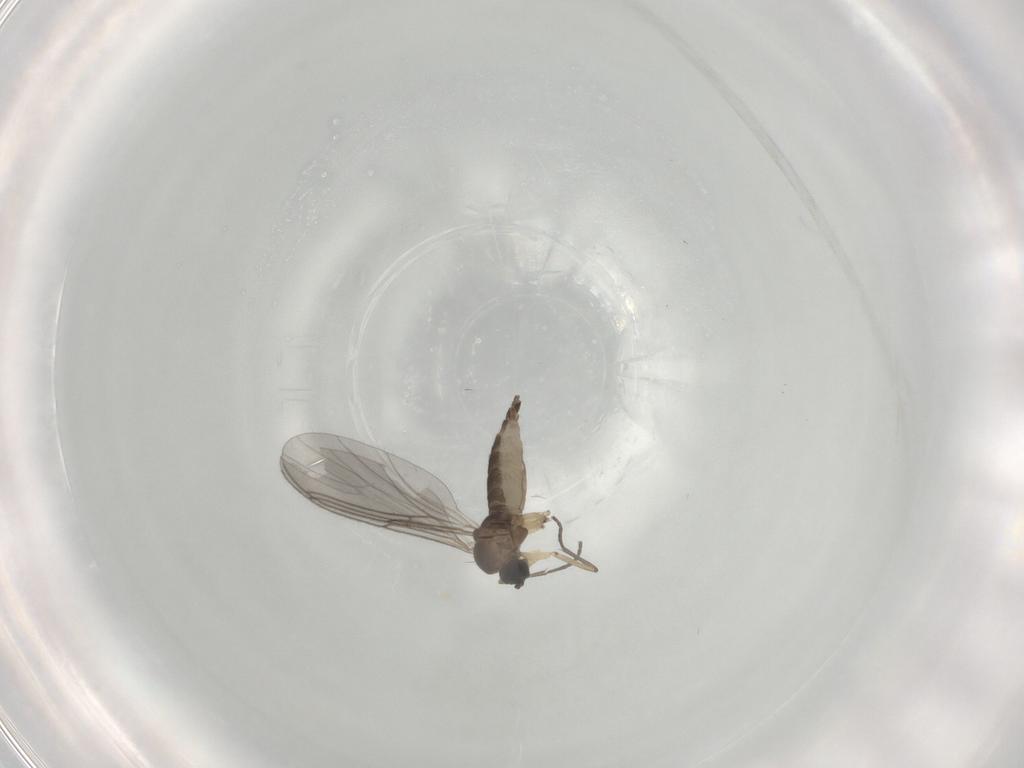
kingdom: Animalia
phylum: Arthropoda
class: Insecta
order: Diptera
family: Sciaridae
